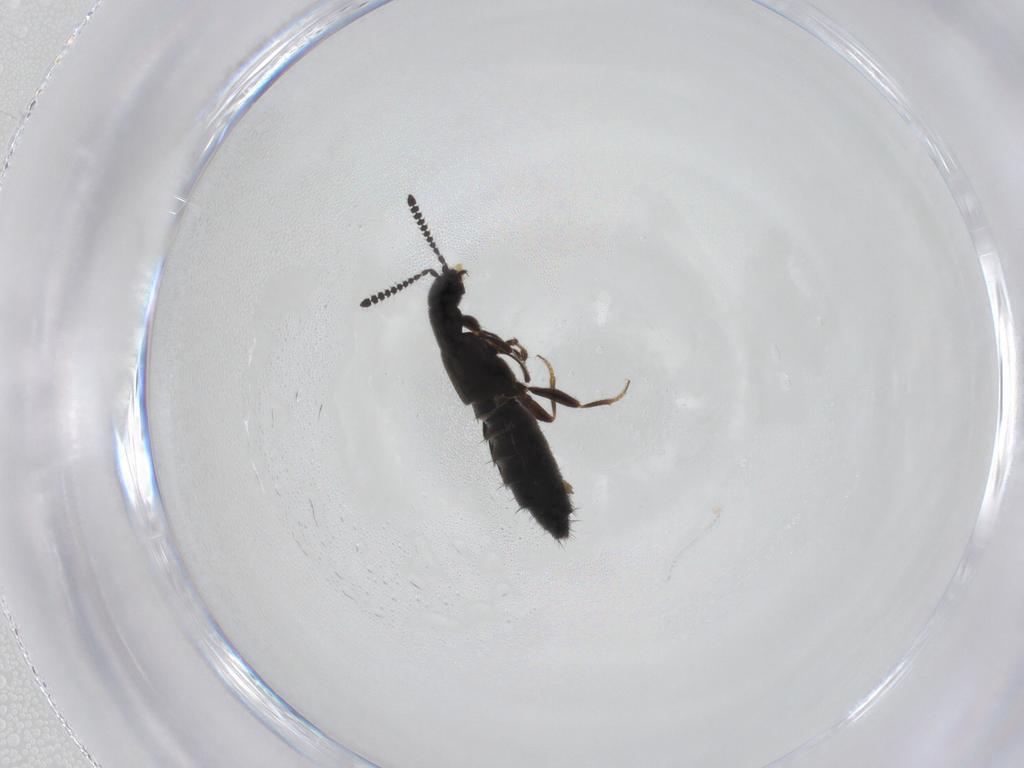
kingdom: Animalia
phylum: Arthropoda
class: Insecta
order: Coleoptera
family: Staphylinidae
